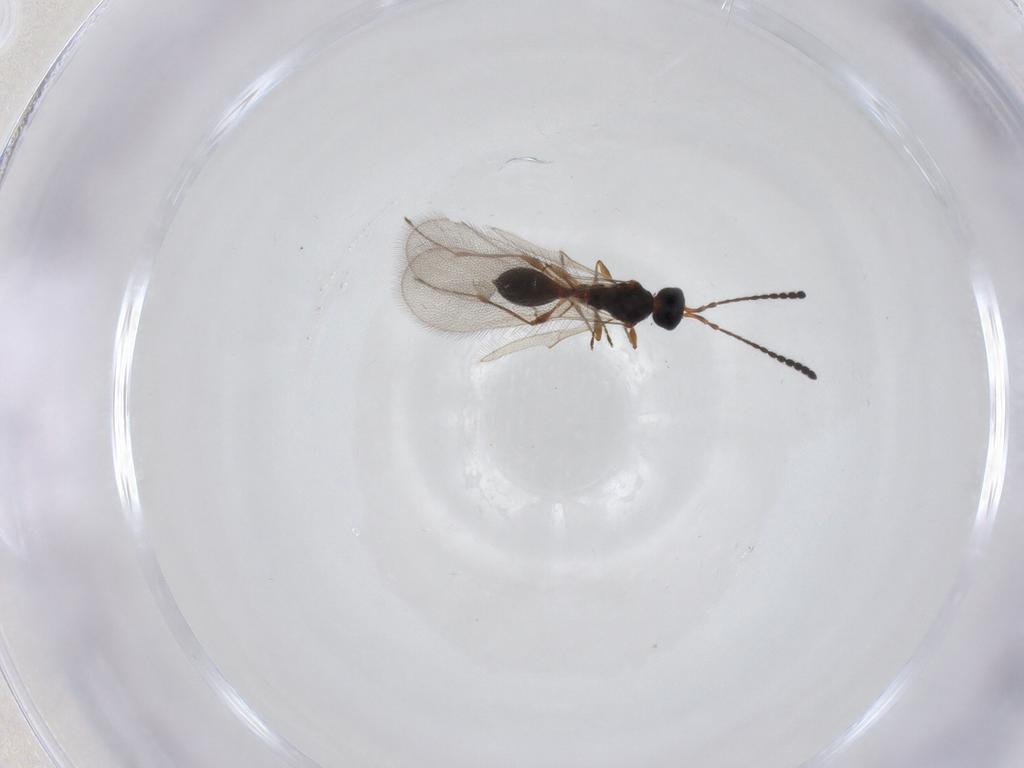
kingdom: Animalia
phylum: Arthropoda
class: Insecta
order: Hymenoptera
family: Diapriidae
